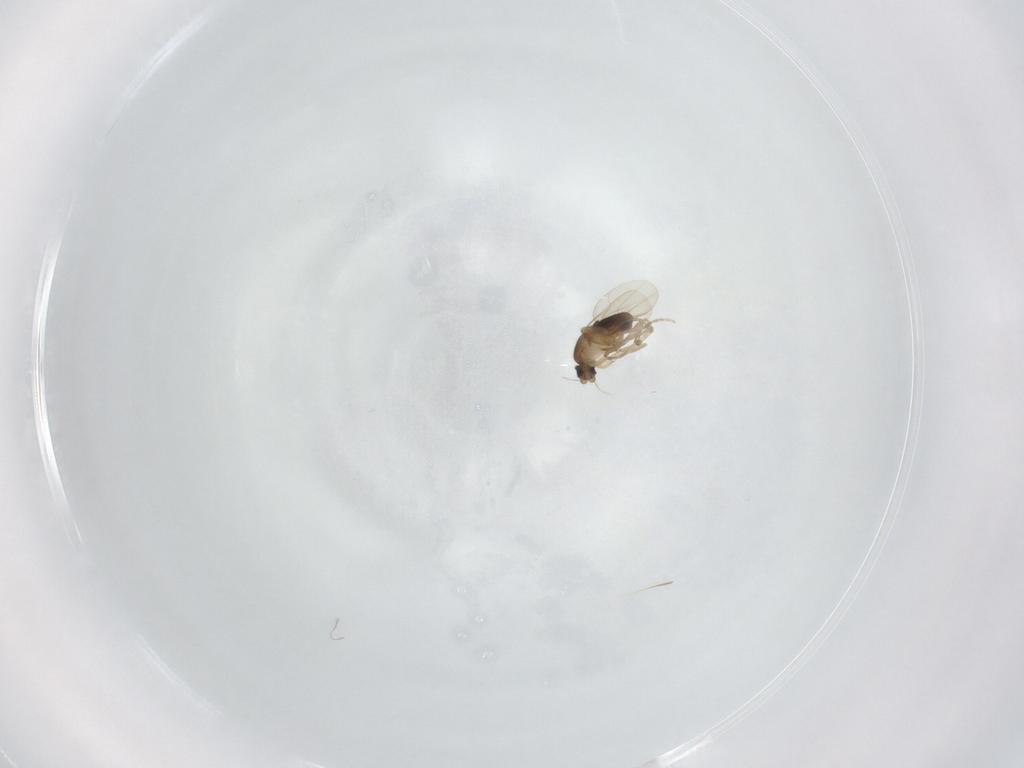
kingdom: Animalia
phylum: Arthropoda
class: Insecta
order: Diptera
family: Phoridae
